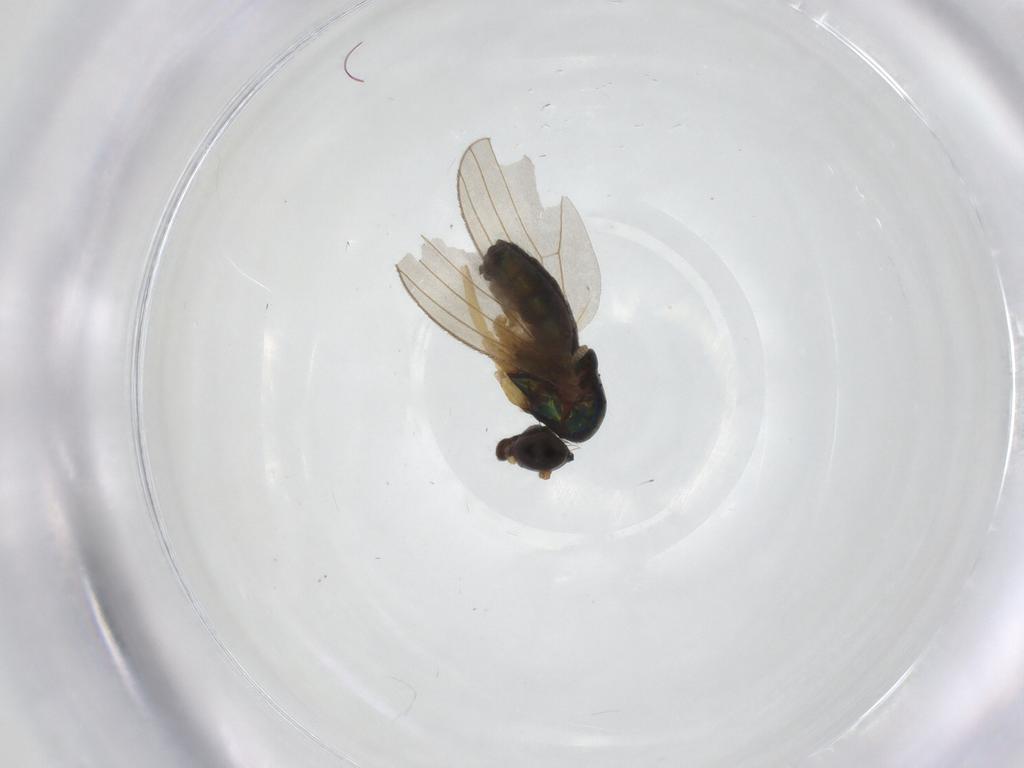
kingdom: Animalia
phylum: Arthropoda
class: Insecta
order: Diptera
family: Dolichopodidae
